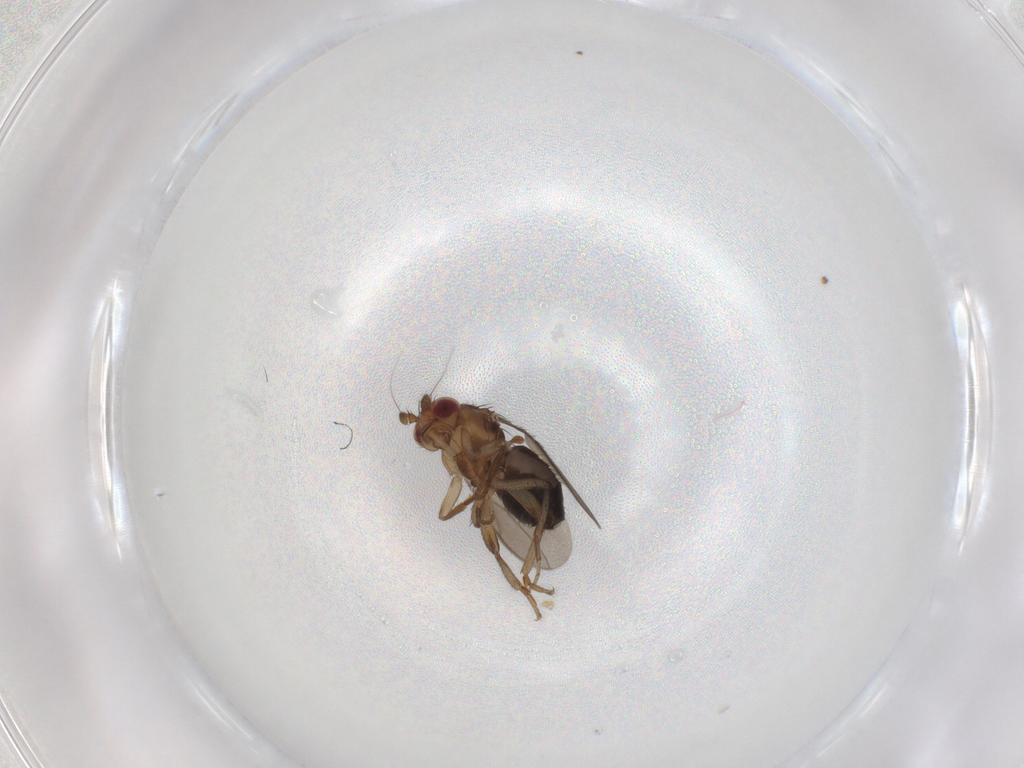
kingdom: Animalia
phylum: Arthropoda
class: Insecta
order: Diptera
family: Sphaeroceridae
